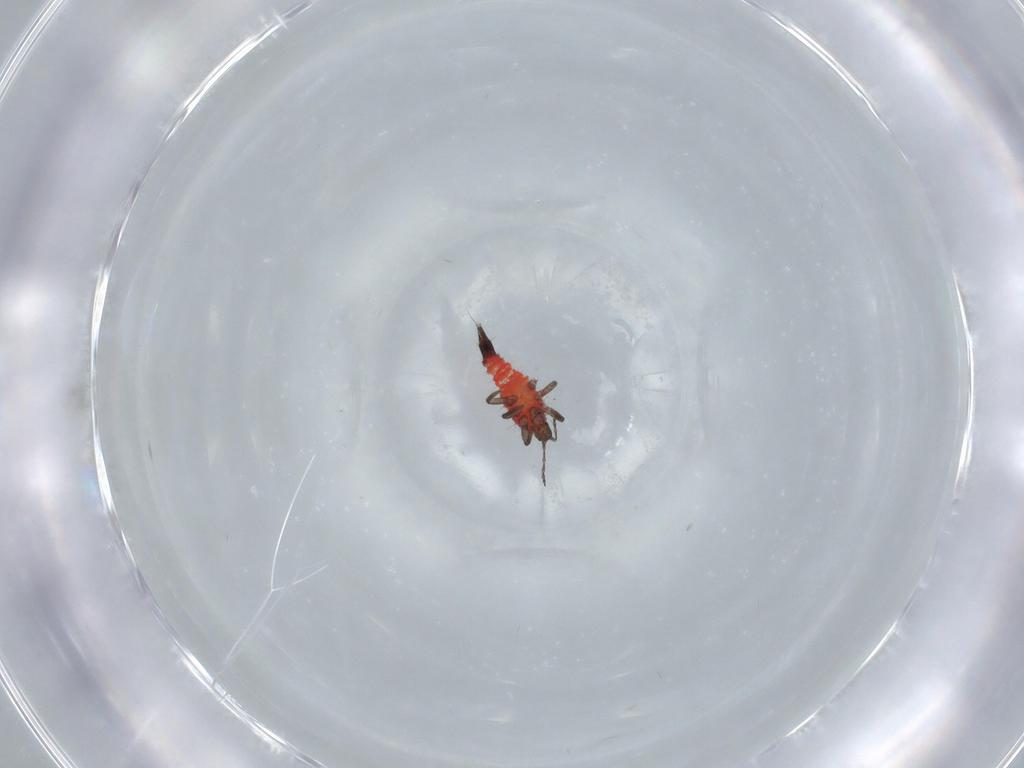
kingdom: Animalia
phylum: Arthropoda
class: Insecta
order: Thysanoptera
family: Phlaeothripidae
